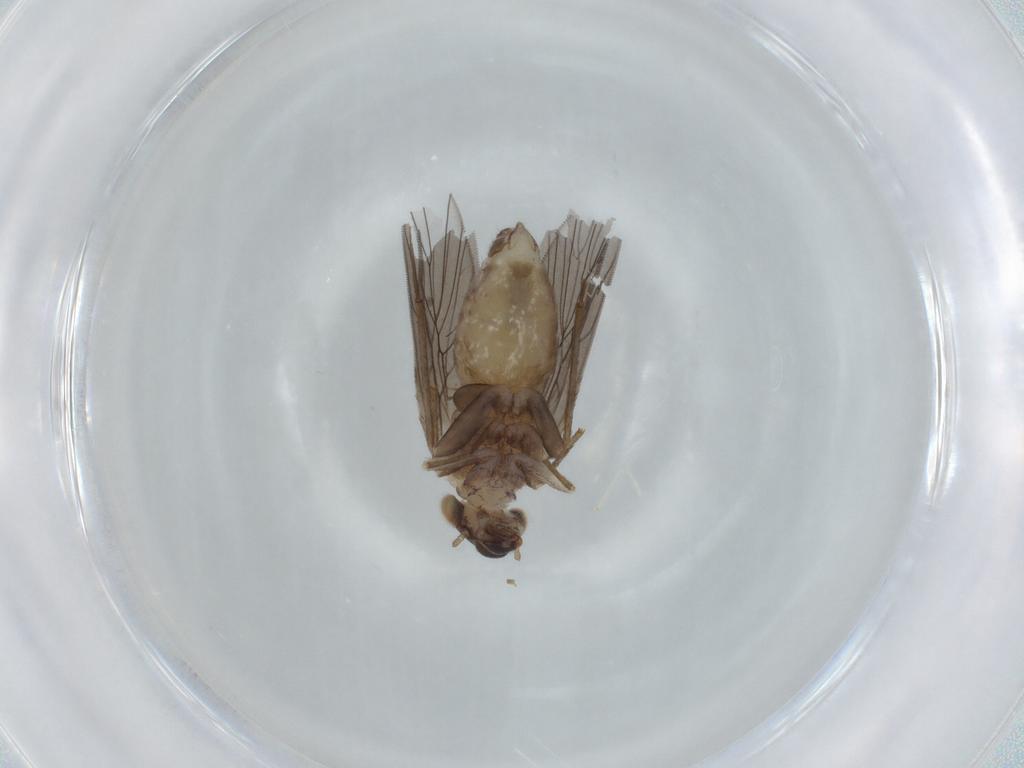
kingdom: Animalia
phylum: Arthropoda
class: Insecta
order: Psocodea
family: Lepidopsocidae
